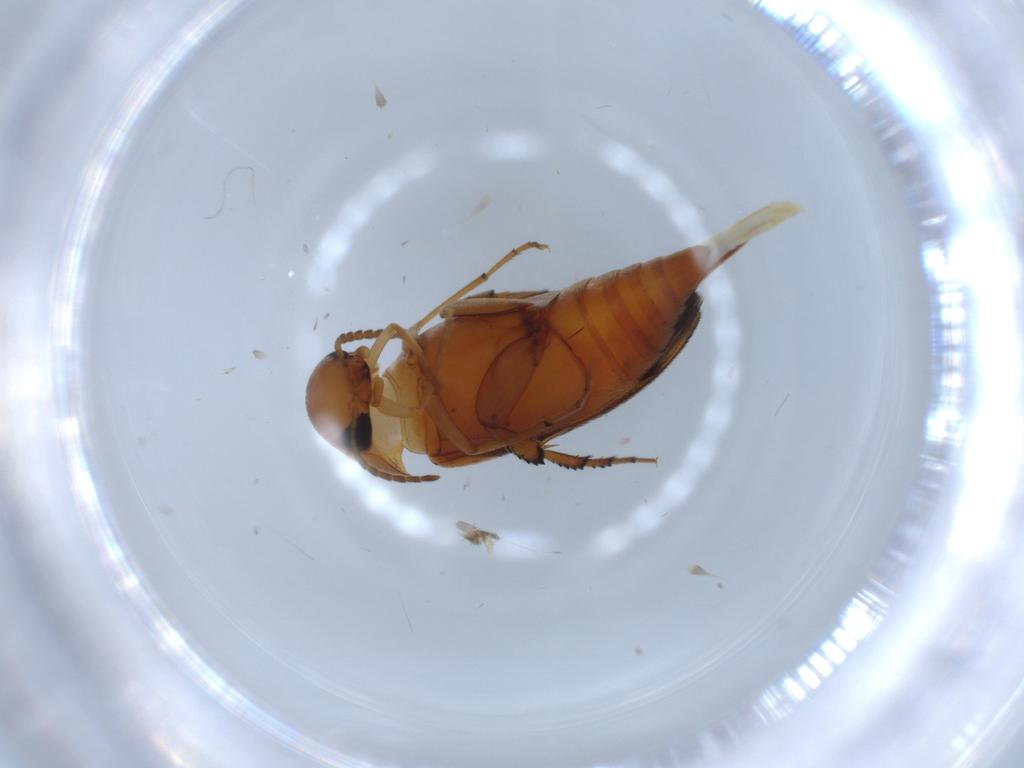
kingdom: Animalia
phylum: Arthropoda
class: Insecta
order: Coleoptera
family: Mordellidae
